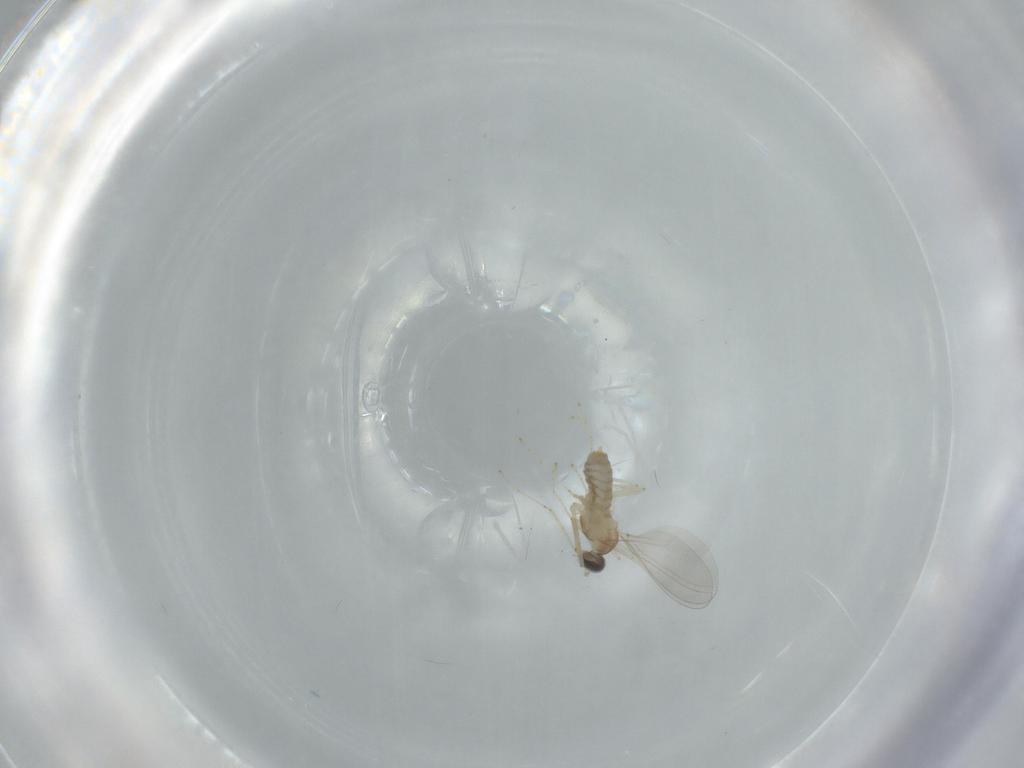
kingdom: Animalia
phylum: Arthropoda
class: Insecta
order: Diptera
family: Cecidomyiidae
